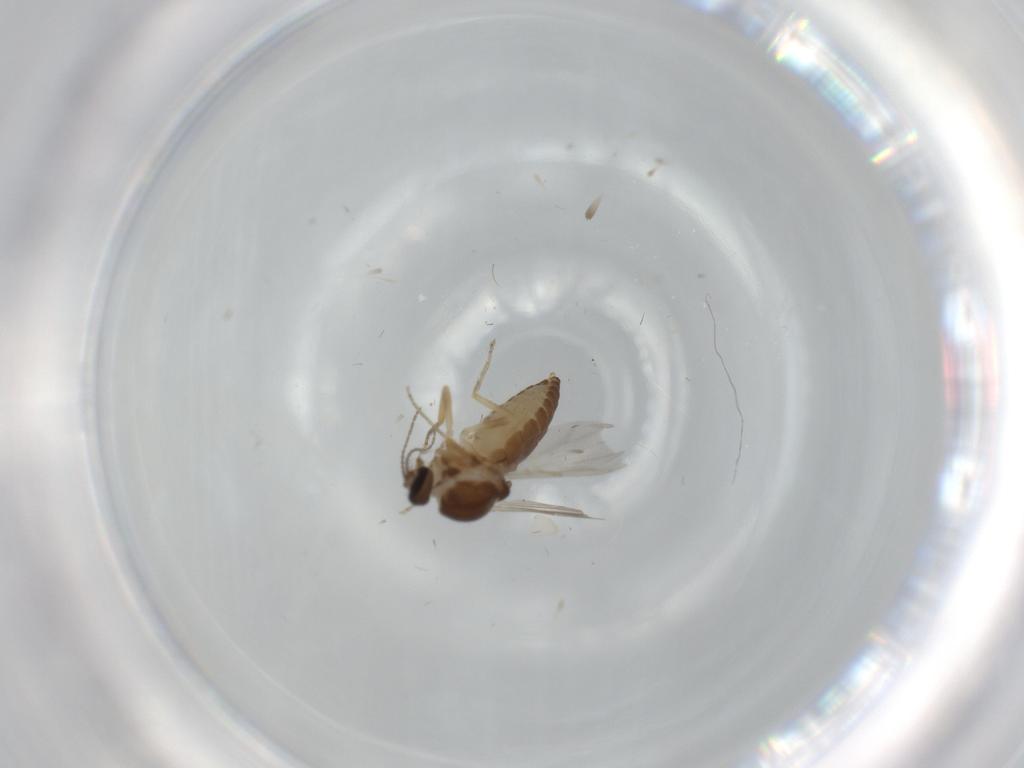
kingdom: Animalia
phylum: Arthropoda
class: Insecta
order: Diptera
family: Ceratopogonidae
